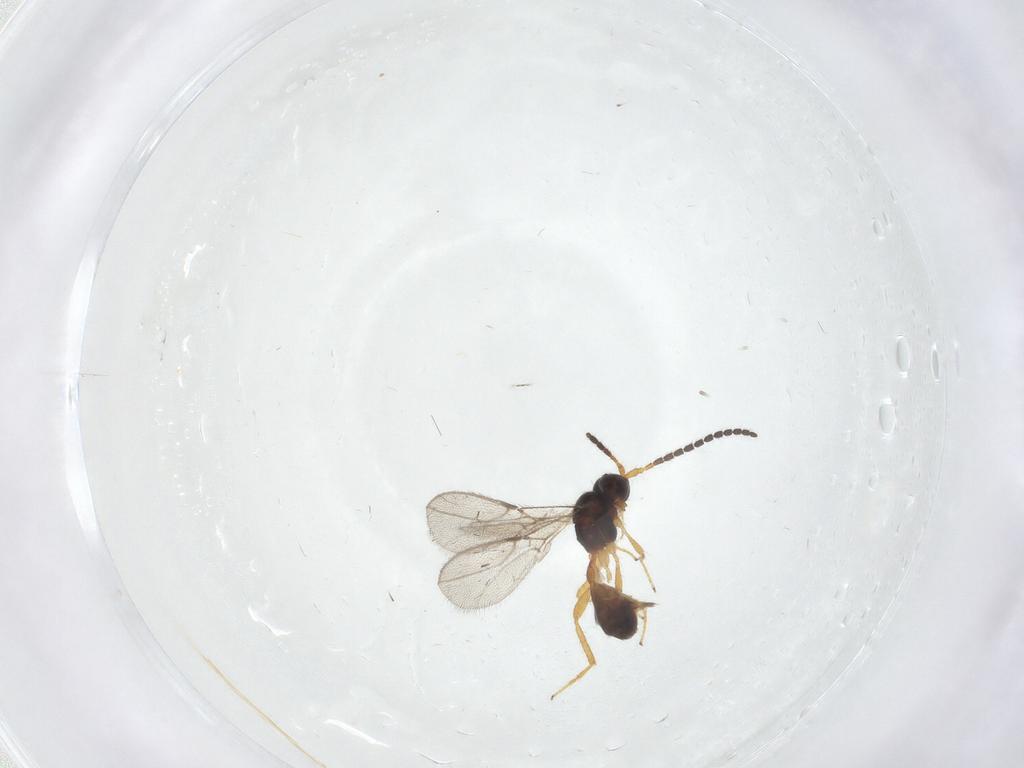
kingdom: Animalia
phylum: Arthropoda
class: Insecta
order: Hymenoptera
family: Braconidae
